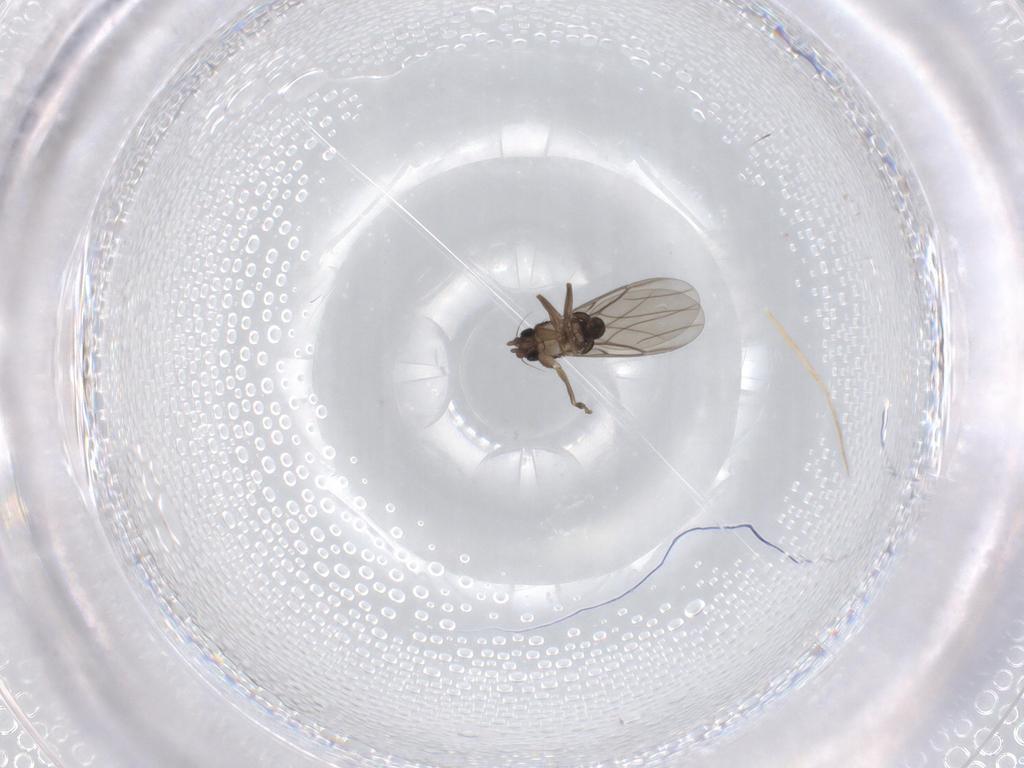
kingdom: Animalia
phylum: Arthropoda
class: Insecta
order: Diptera
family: Phoridae
